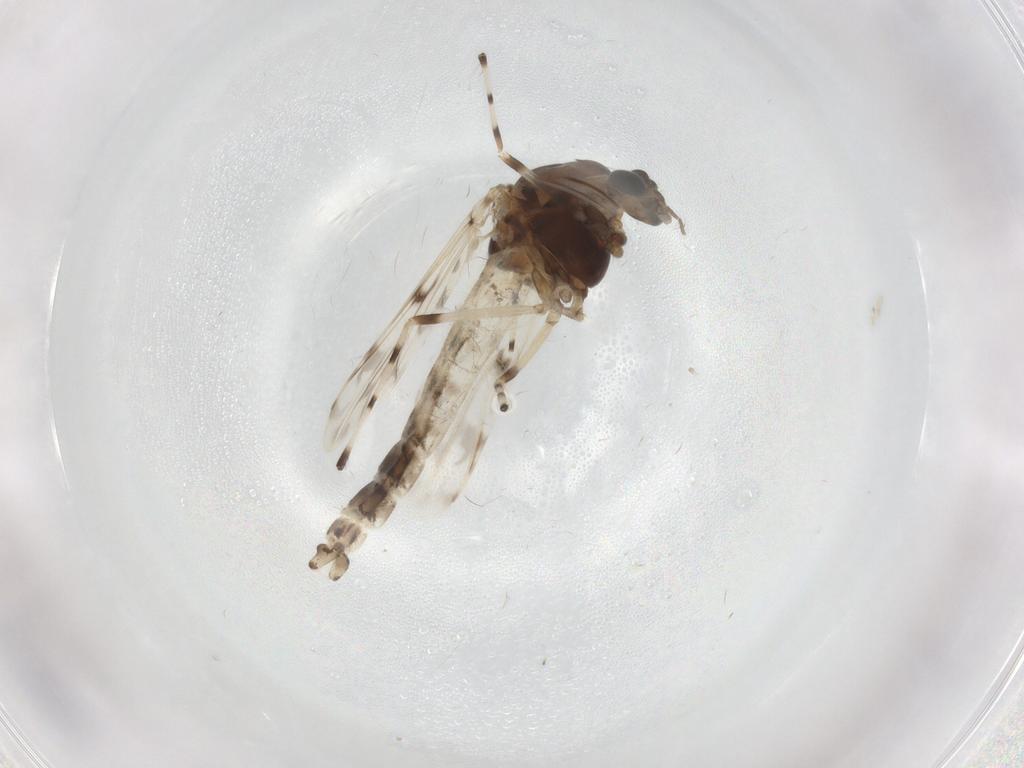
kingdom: Animalia
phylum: Arthropoda
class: Insecta
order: Diptera
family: Chironomidae
